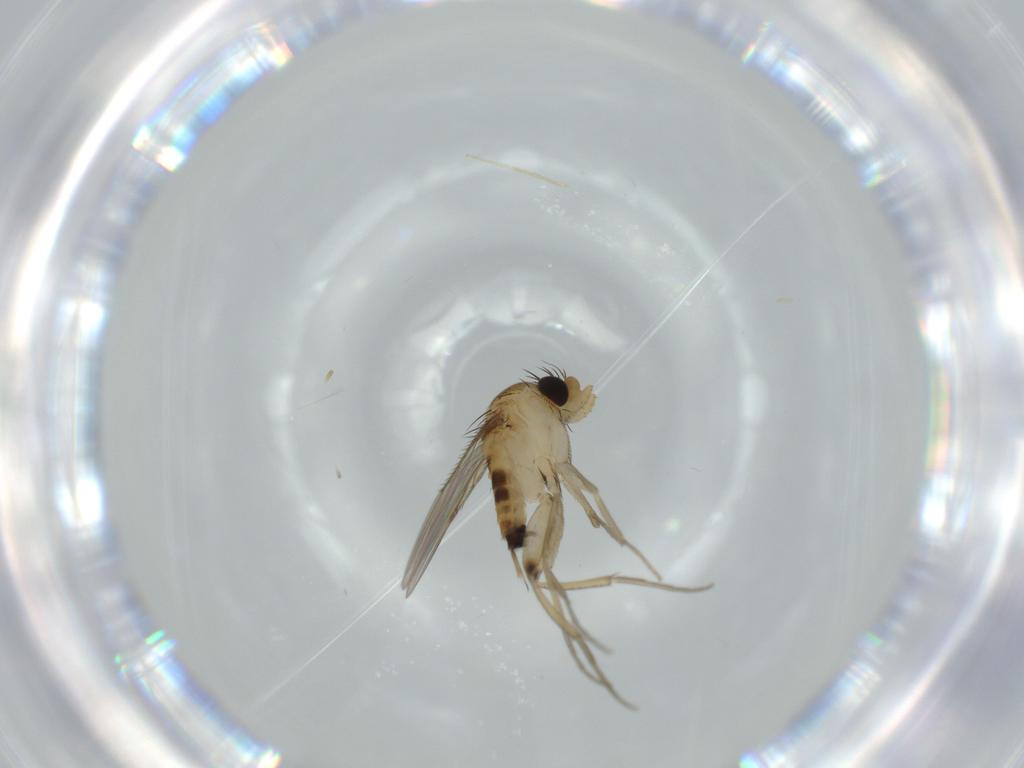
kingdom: Animalia
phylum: Arthropoda
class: Insecta
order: Diptera
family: Phoridae
